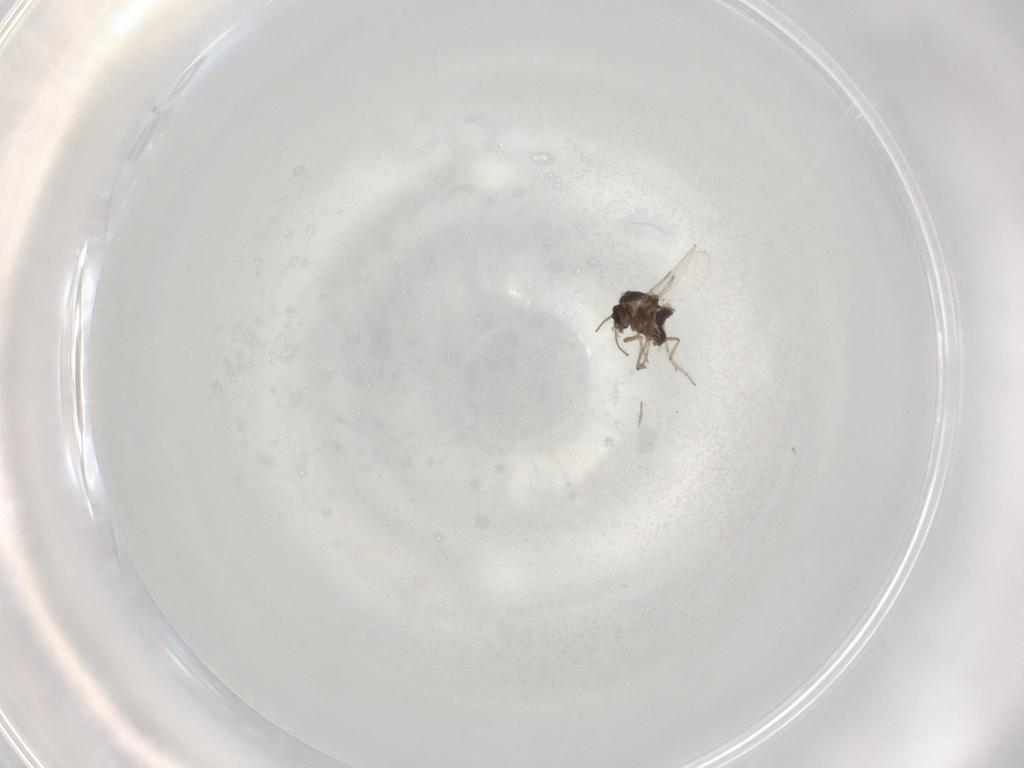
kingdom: Animalia
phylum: Arthropoda
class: Insecta
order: Diptera
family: Ceratopogonidae
